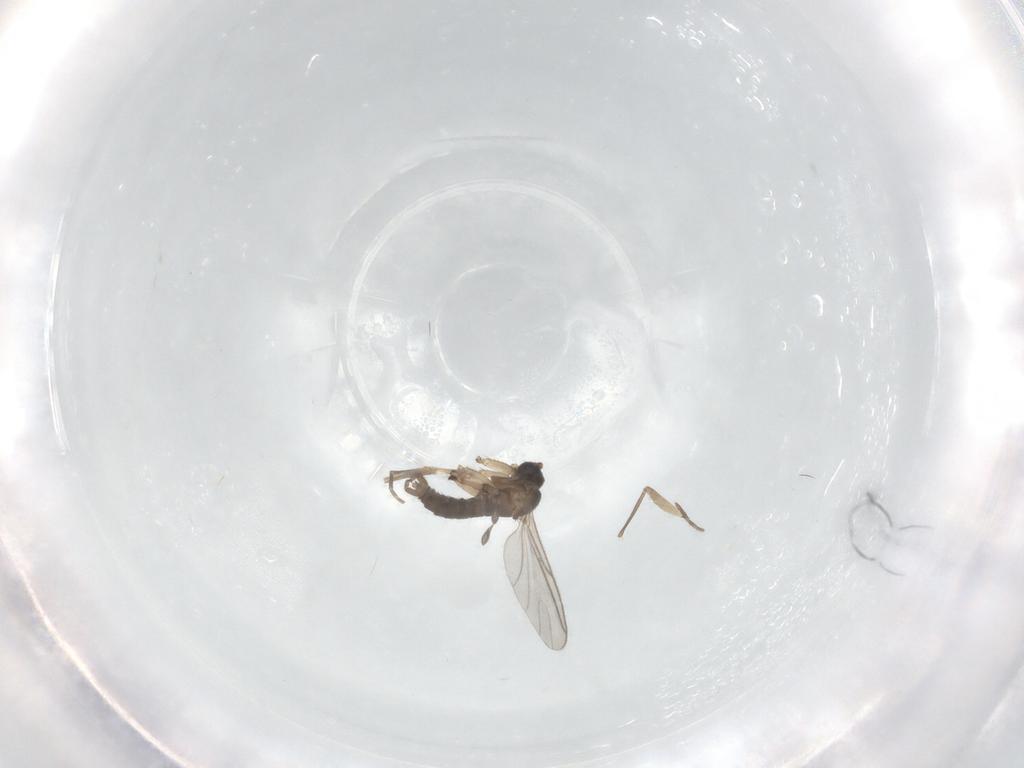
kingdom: Animalia
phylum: Arthropoda
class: Insecta
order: Diptera
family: Sciaridae
